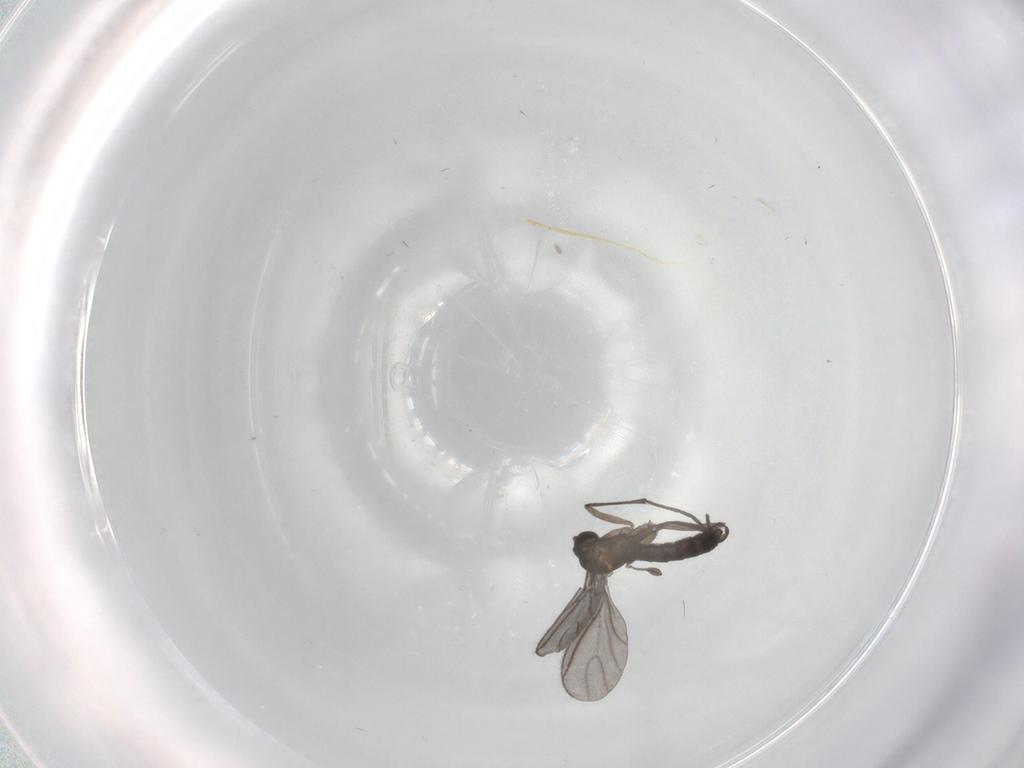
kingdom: Animalia
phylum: Arthropoda
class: Insecta
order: Diptera
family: Sciaridae
